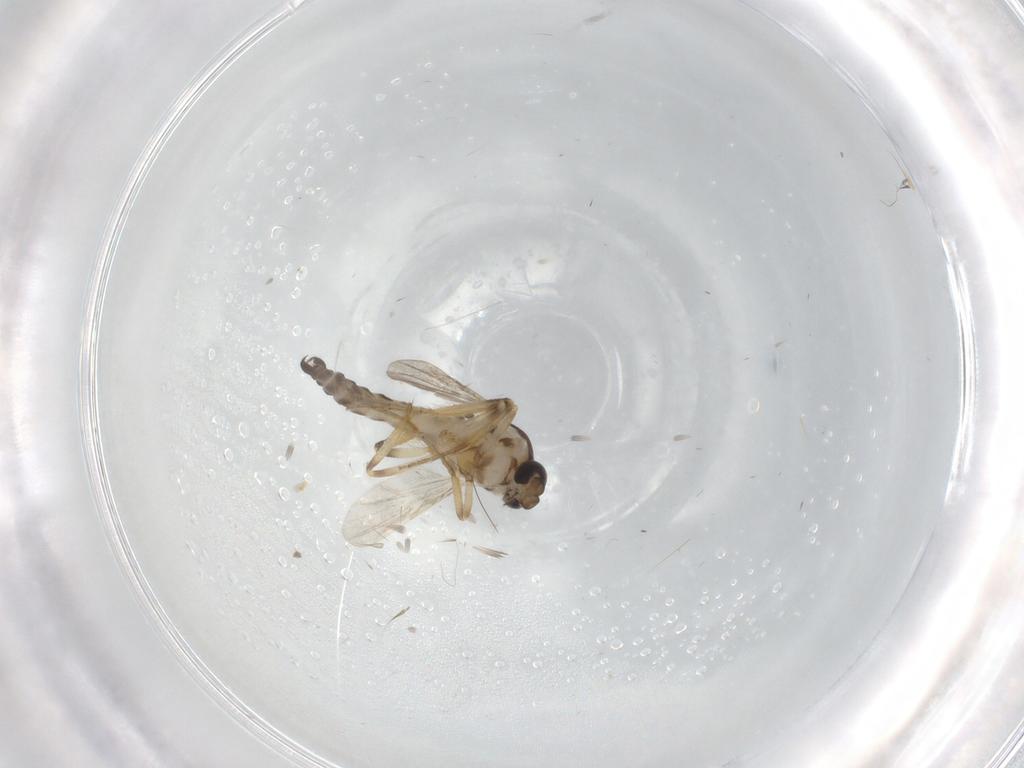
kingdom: Animalia
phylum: Arthropoda
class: Insecta
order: Diptera
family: Ceratopogonidae
